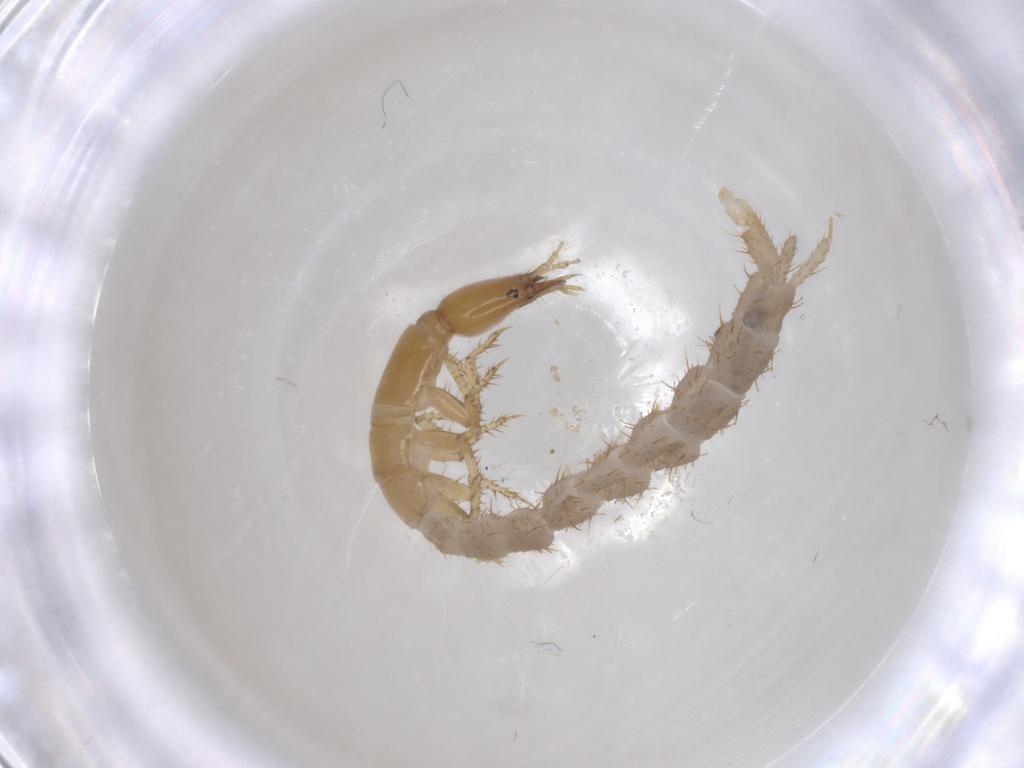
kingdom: Animalia
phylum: Arthropoda
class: Insecta
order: Coleoptera
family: Staphylinidae
